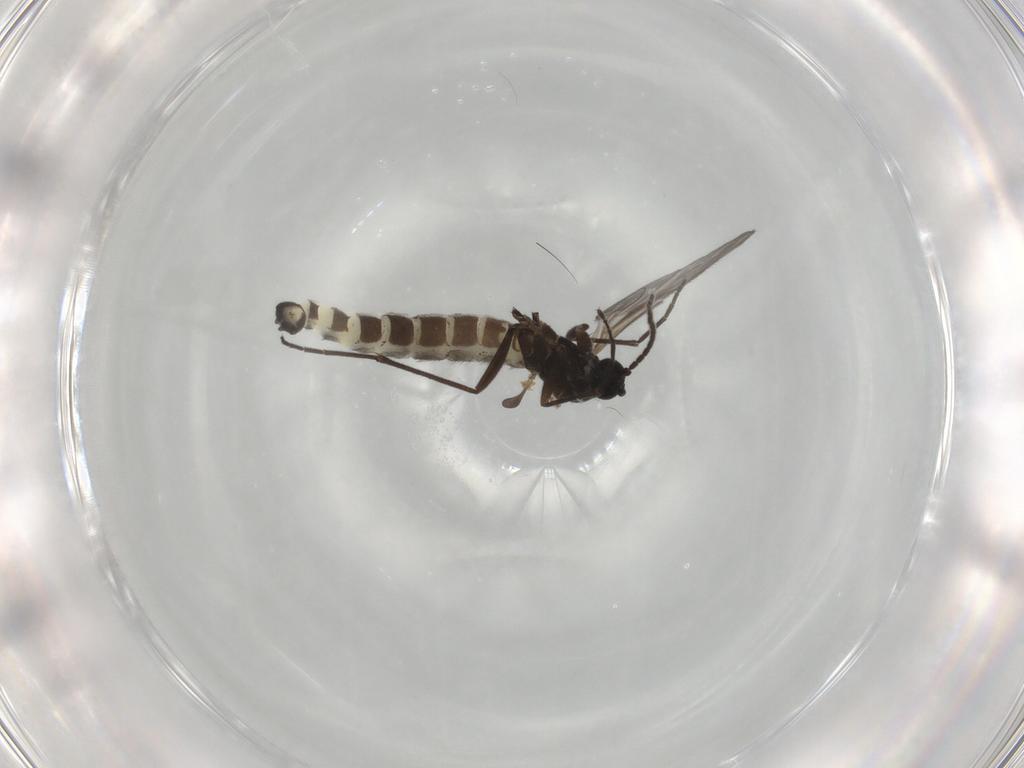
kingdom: Animalia
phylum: Arthropoda
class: Insecta
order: Diptera
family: Sciaridae
